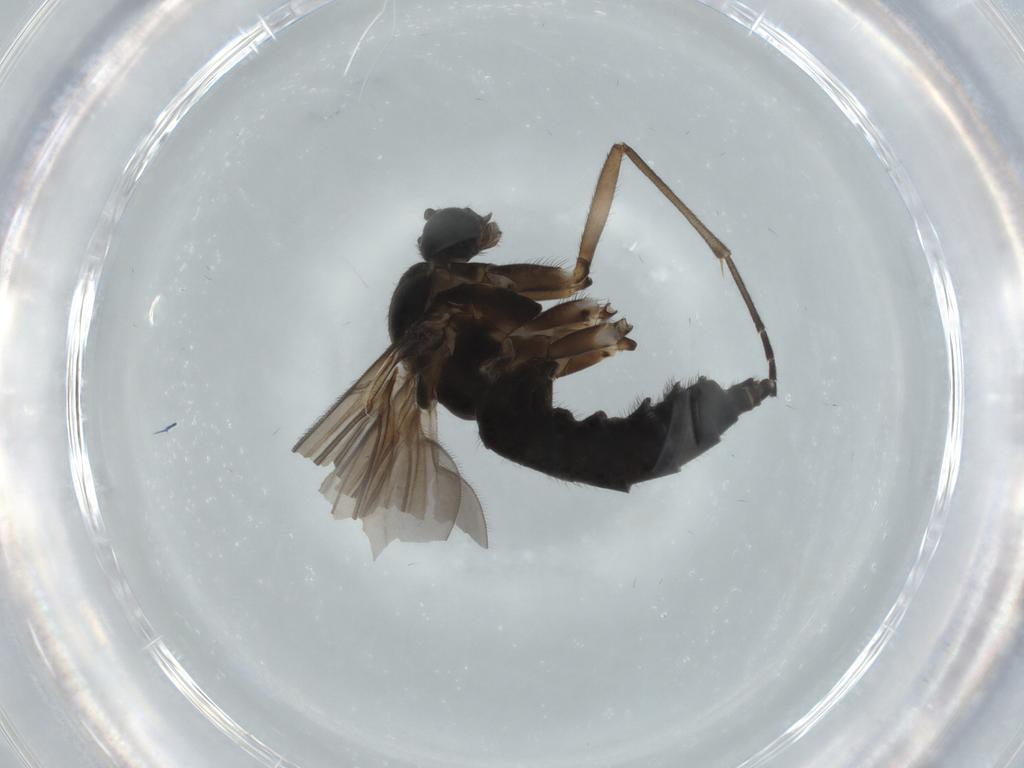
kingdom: Animalia
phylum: Arthropoda
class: Insecta
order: Diptera
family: Sciaridae
